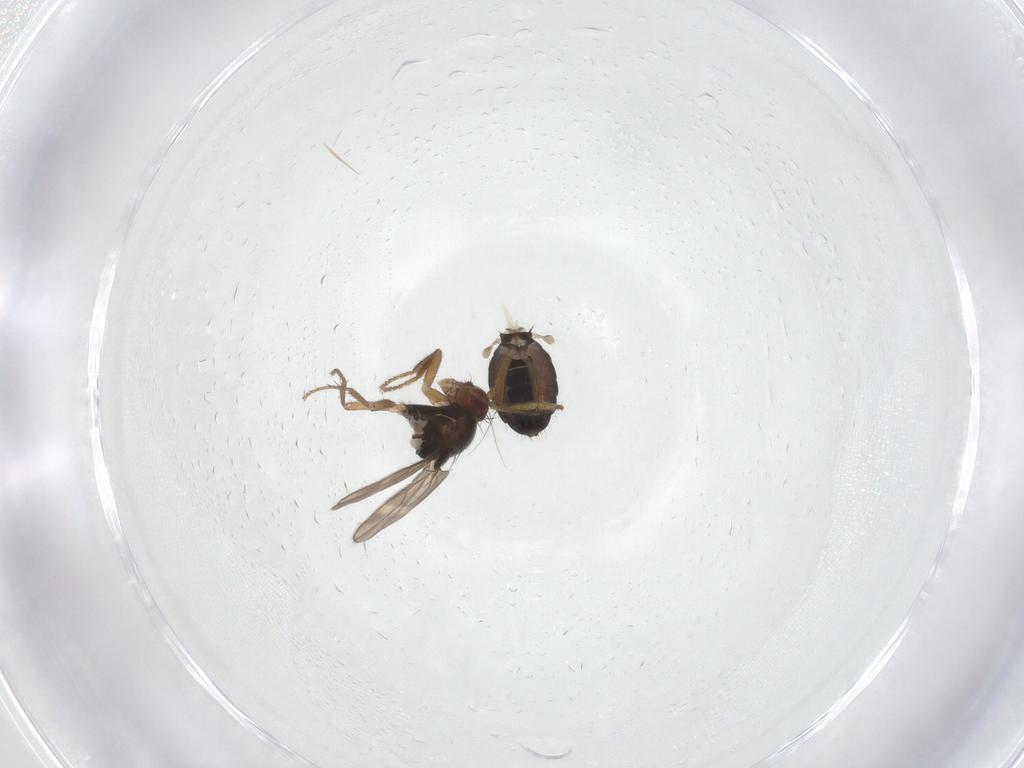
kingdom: Animalia
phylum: Arthropoda
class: Insecta
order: Diptera
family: Sphaeroceridae
